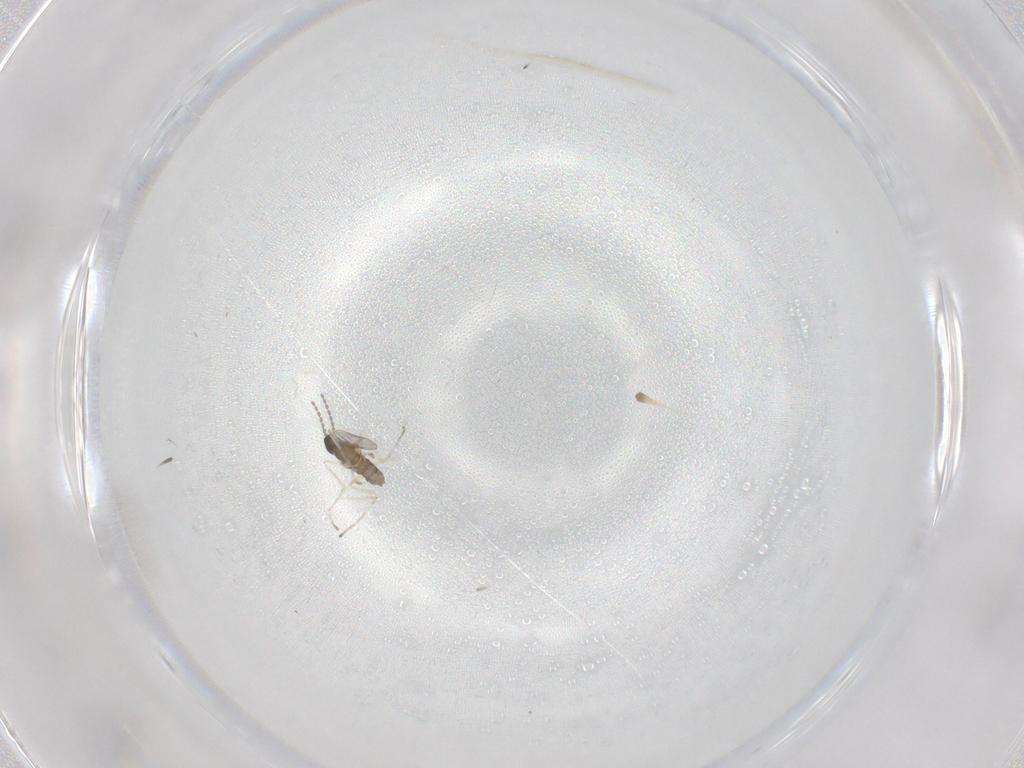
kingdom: Animalia
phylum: Arthropoda
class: Insecta
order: Diptera
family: Cecidomyiidae
